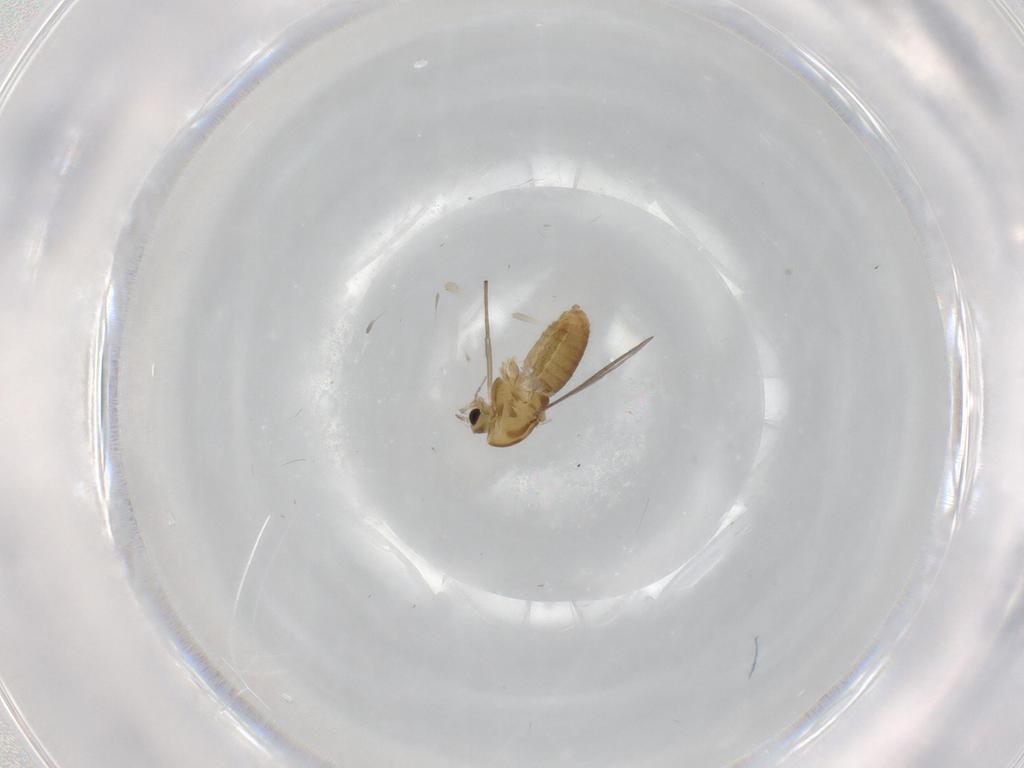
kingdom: Animalia
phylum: Arthropoda
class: Insecta
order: Diptera
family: Chironomidae
